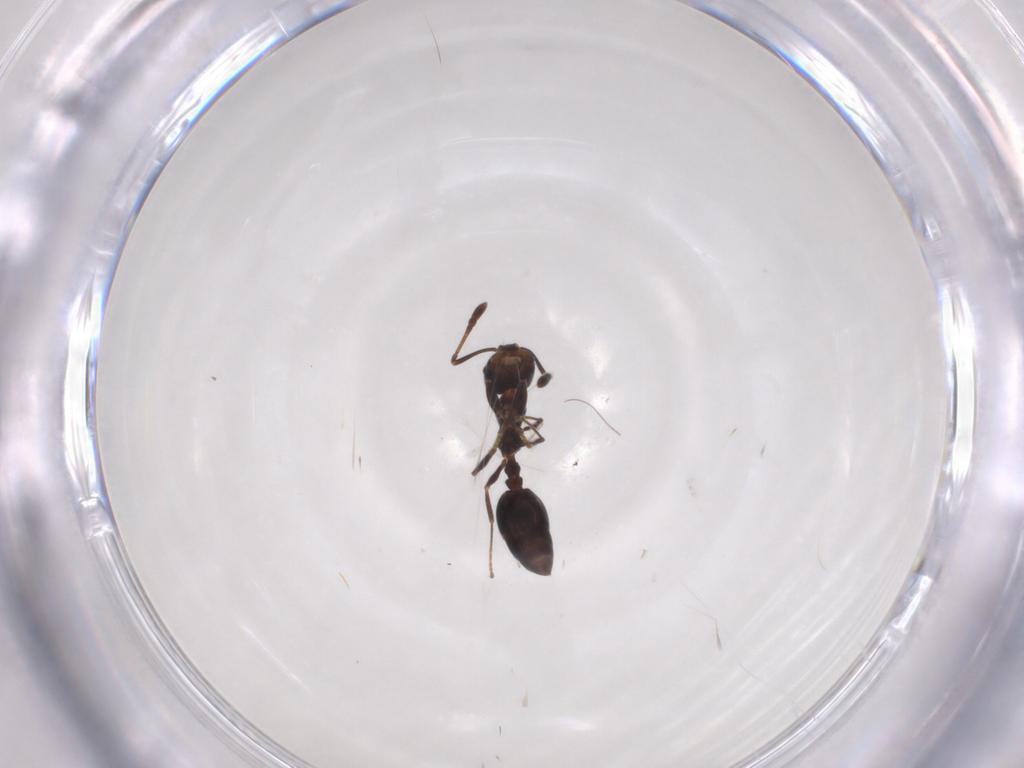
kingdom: Animalia
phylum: Arthropoda
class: Insecta
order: Hymenoptera
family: Formicidae
